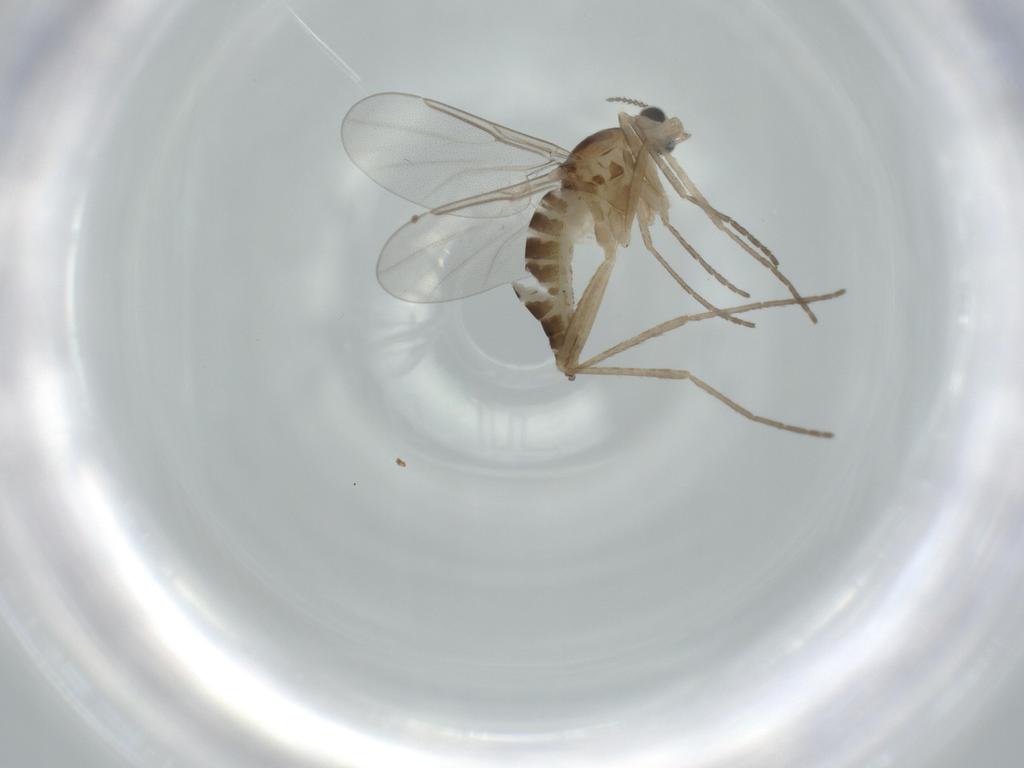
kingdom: Animalia
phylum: Arthropoda
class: Insecta
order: Diptera
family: Cecidomyiidae
